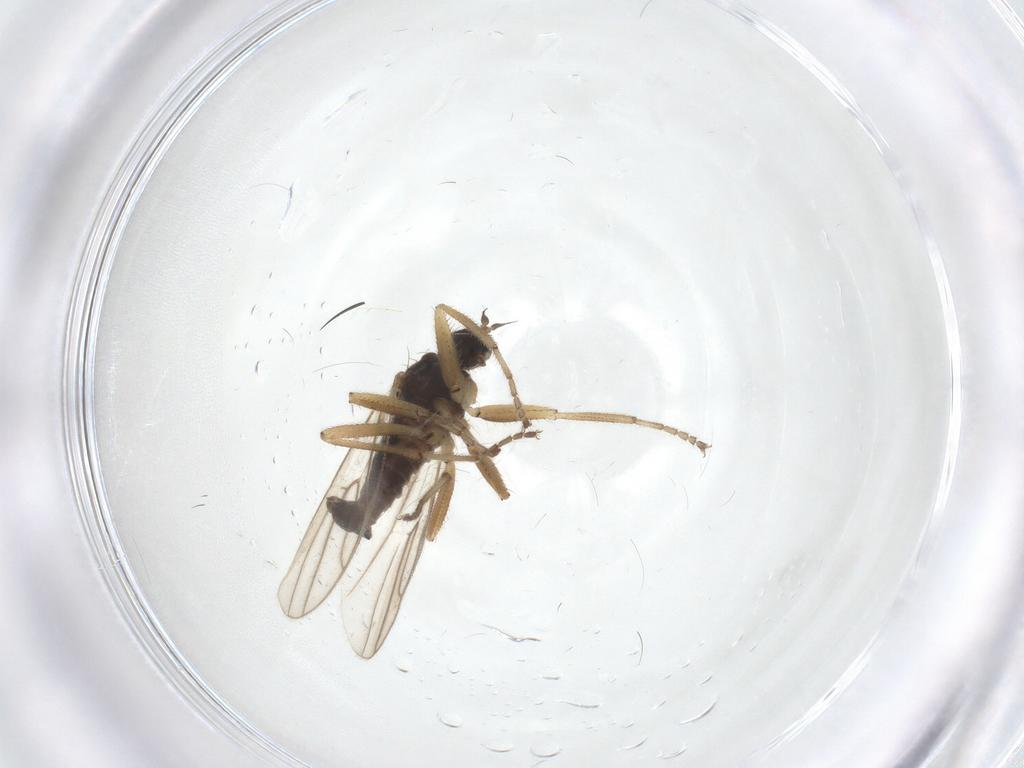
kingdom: Animalia
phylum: Arthropoda
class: Insecta
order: Diptera
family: Hybotidae
